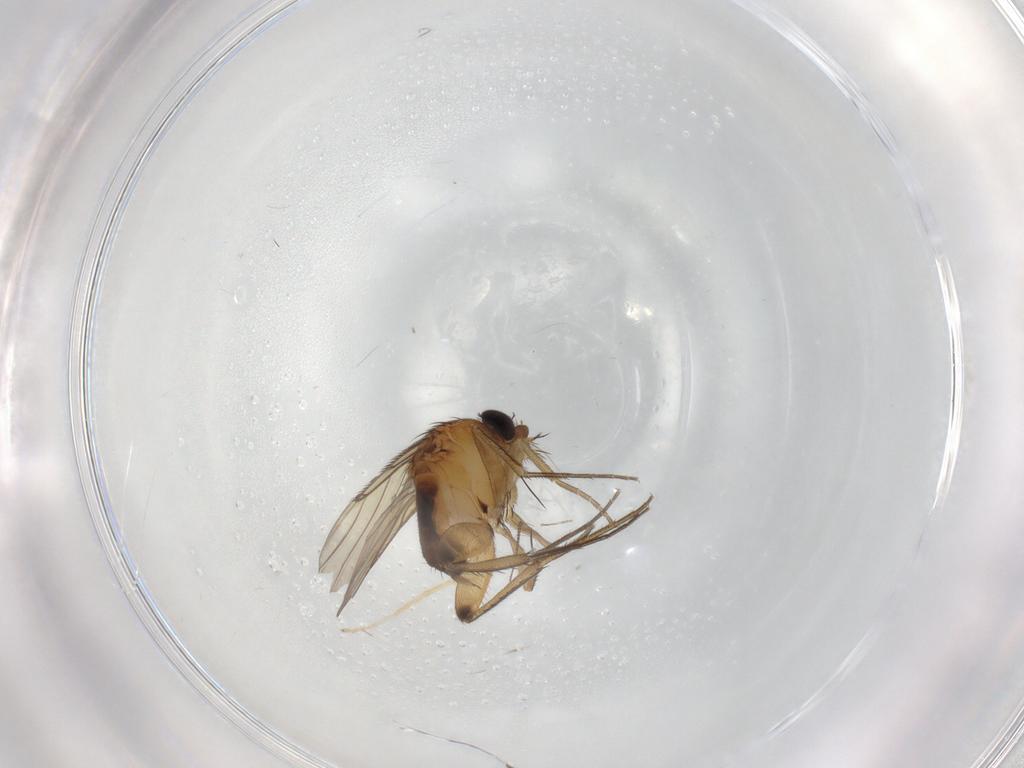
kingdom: Animalia
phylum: Arthropoda
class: Insecta
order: Diptera
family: Phoridae
